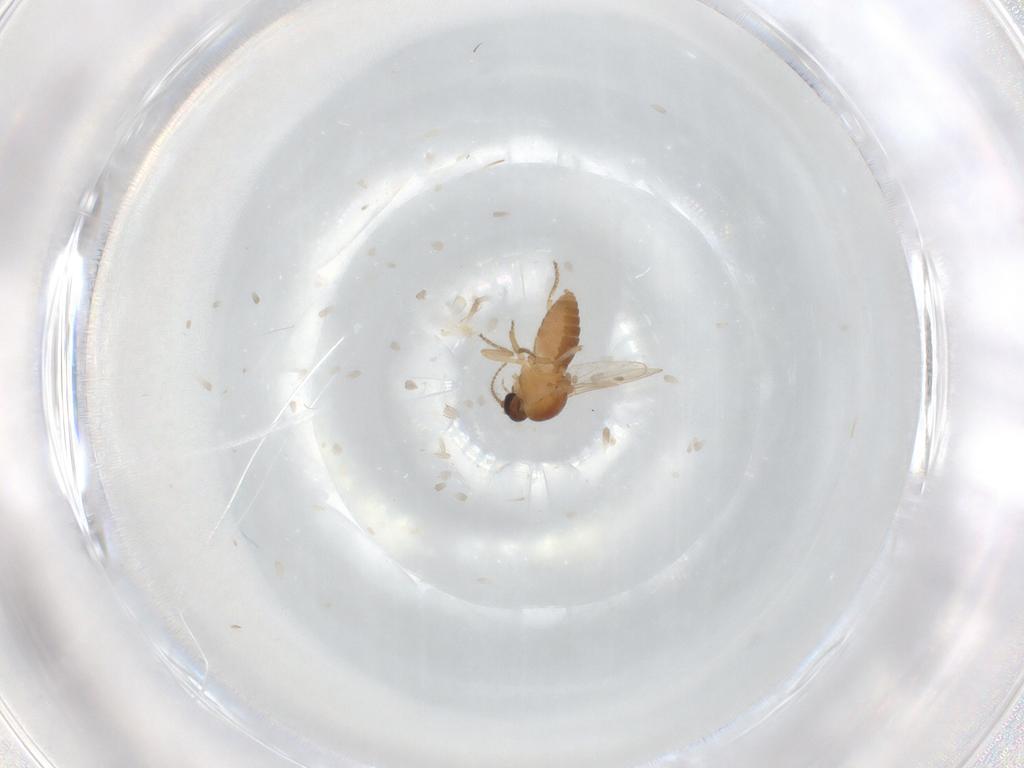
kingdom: Animalia
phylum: Arthropoda
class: Insecta
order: Diptera
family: Ceratopogonidae
